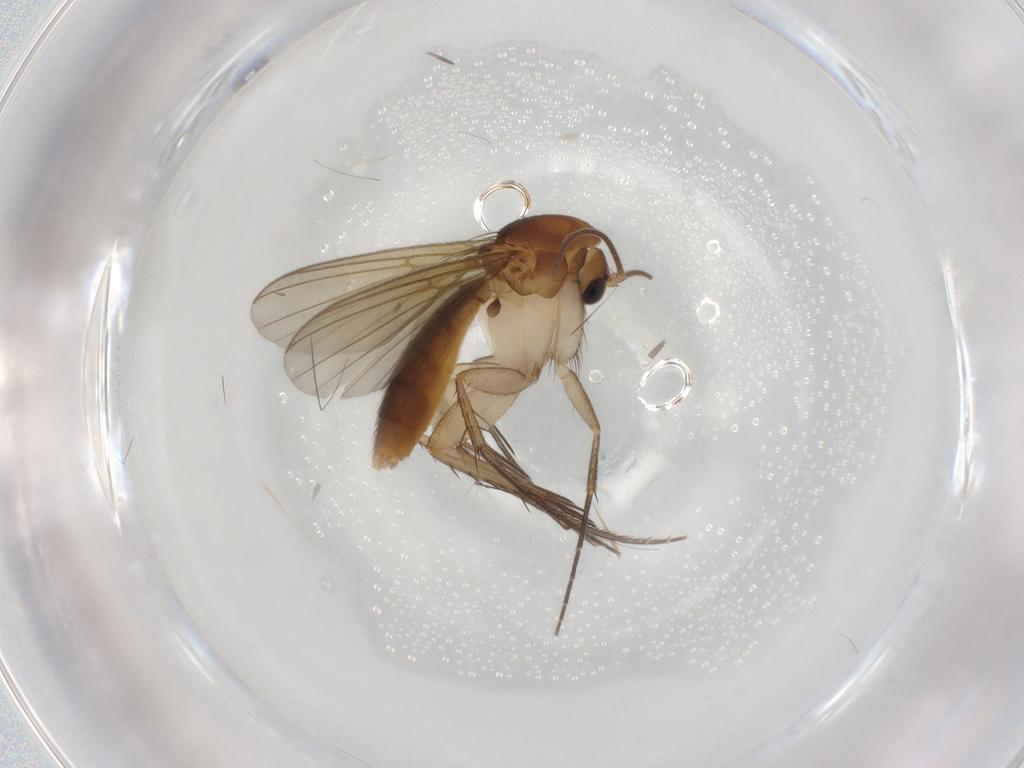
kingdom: Animalia
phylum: Arthropoda
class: Insecta
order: Diptera
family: Mycetophilidae
